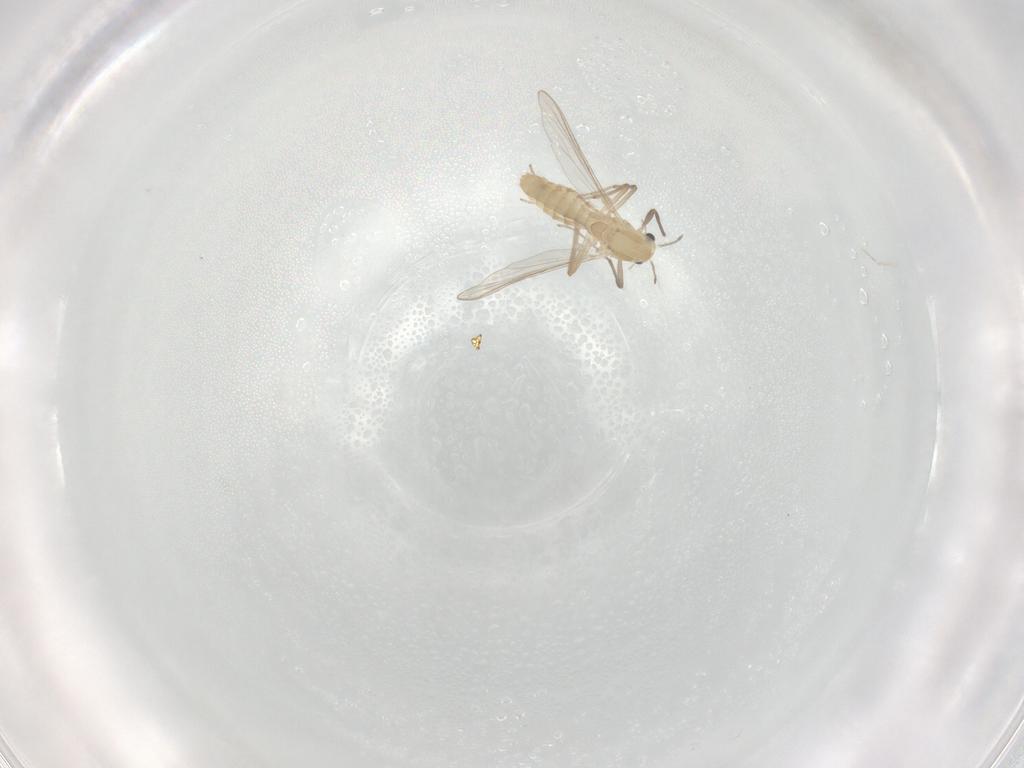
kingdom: Animalia
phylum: Arthropoda
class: Insecta
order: Diptera
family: Chironomidae
